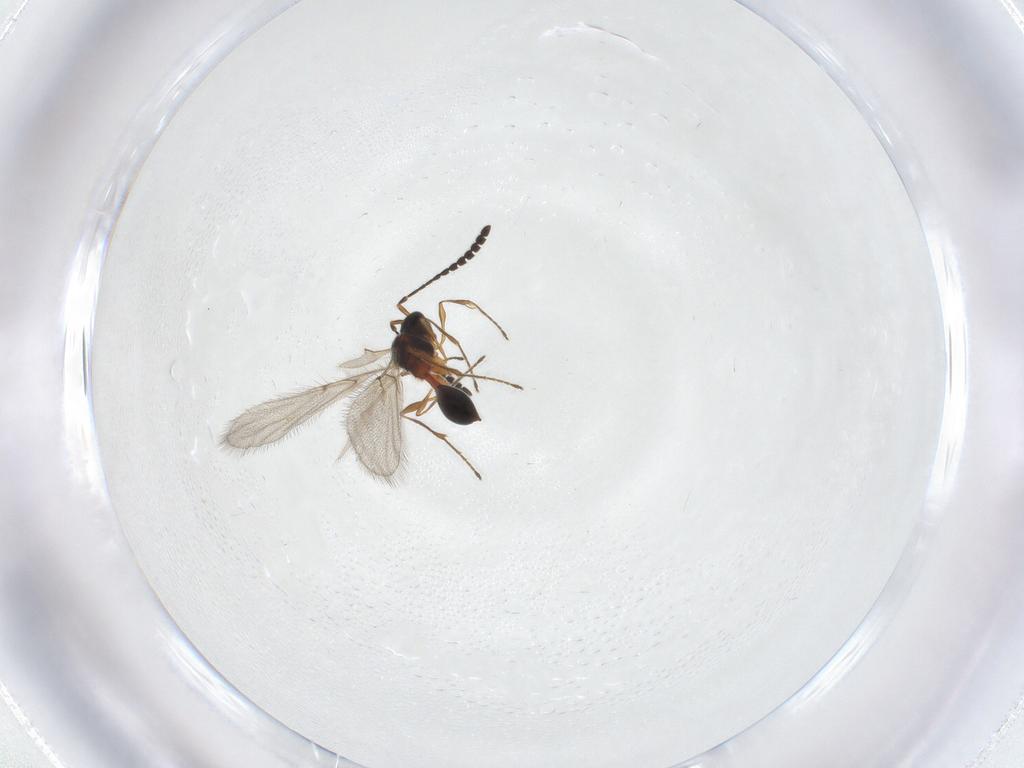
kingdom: Animalia
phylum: Arthropoda
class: Insecta
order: Hymenoptera
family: Diapriidae
